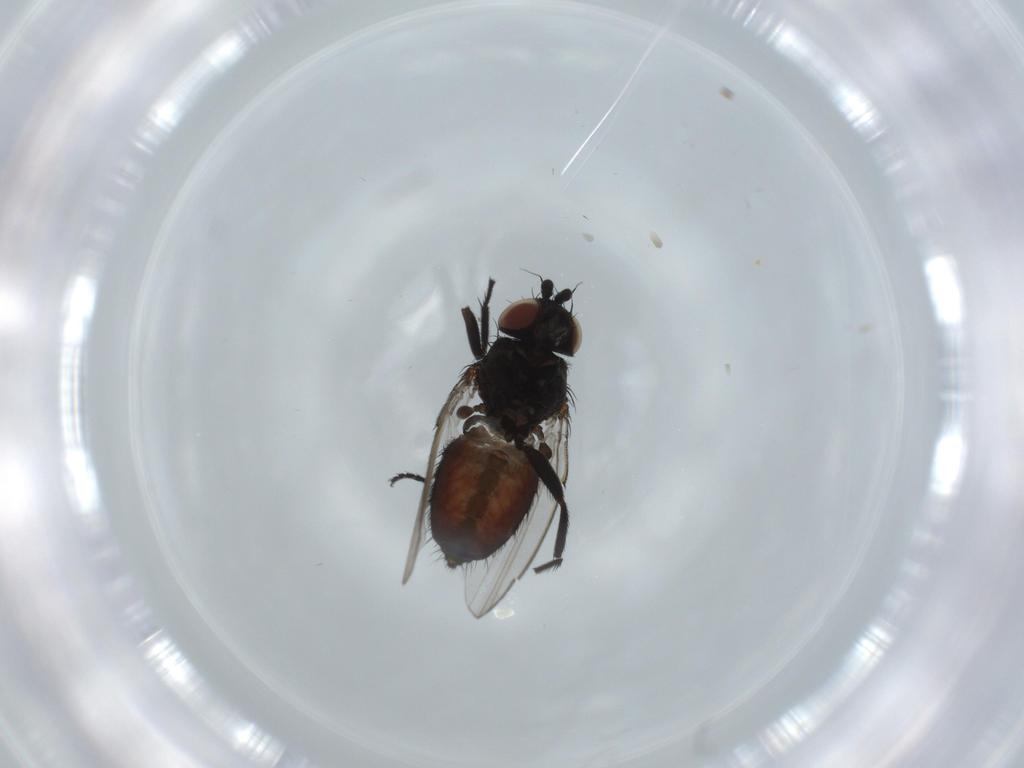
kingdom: Animalia
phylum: Arthropoda
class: Insecta
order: Diptera
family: Milichiidae
